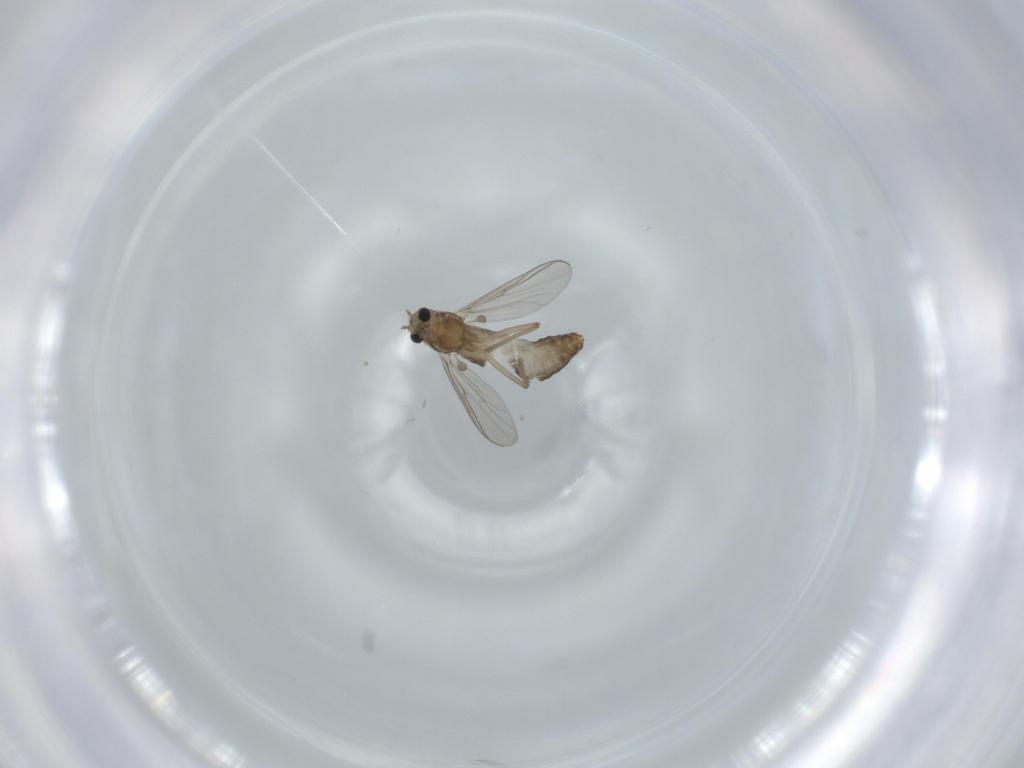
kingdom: Animalia
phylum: Arthropoda
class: Insecta
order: Diptera
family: Chironomidae
